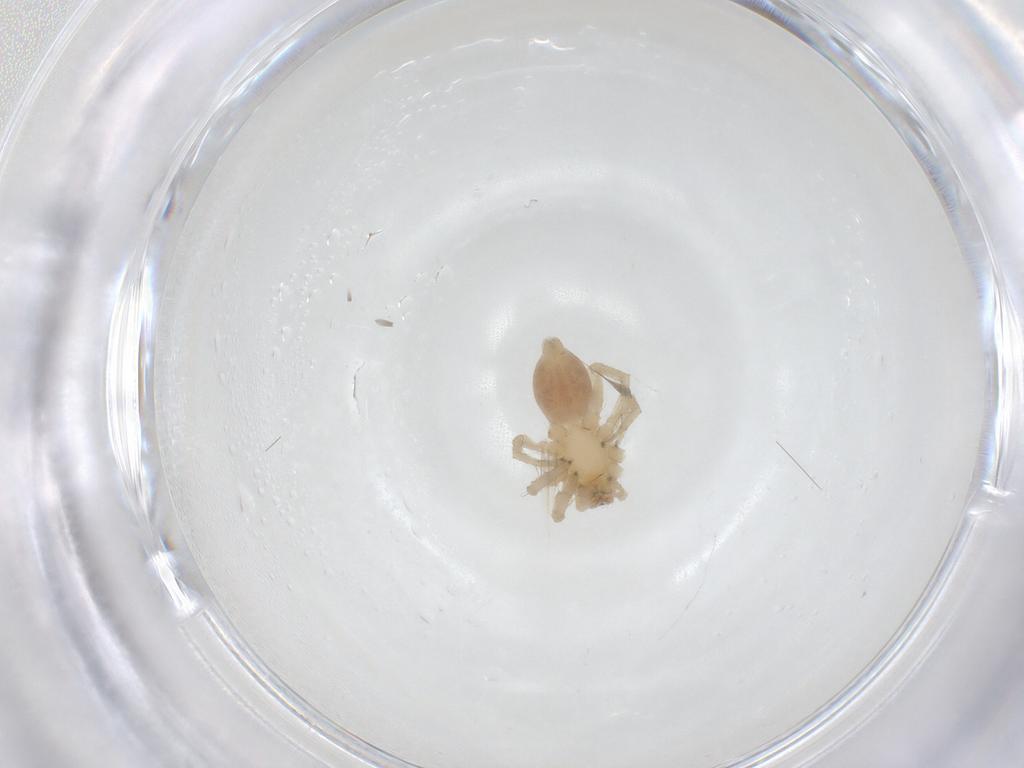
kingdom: Animalia
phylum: Arthropoda
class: Arachnida
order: Araneae
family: Clubionidae
